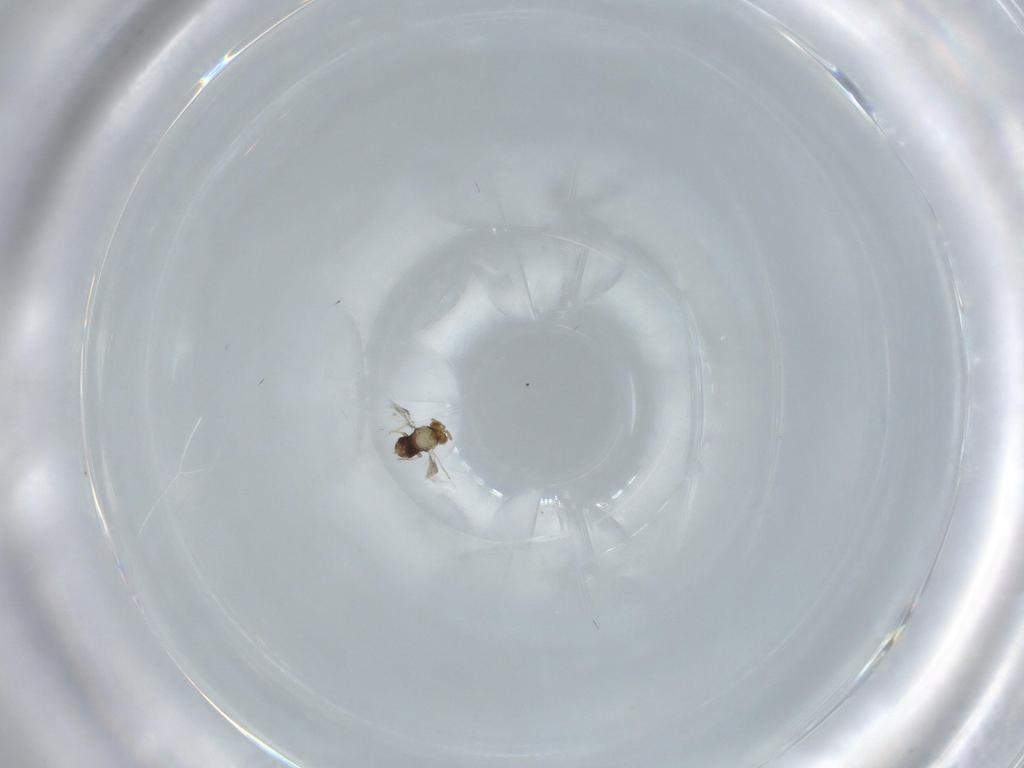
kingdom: Animalia
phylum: Arthropoda
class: Insecta
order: Hymenoptera
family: Aphelinidae
